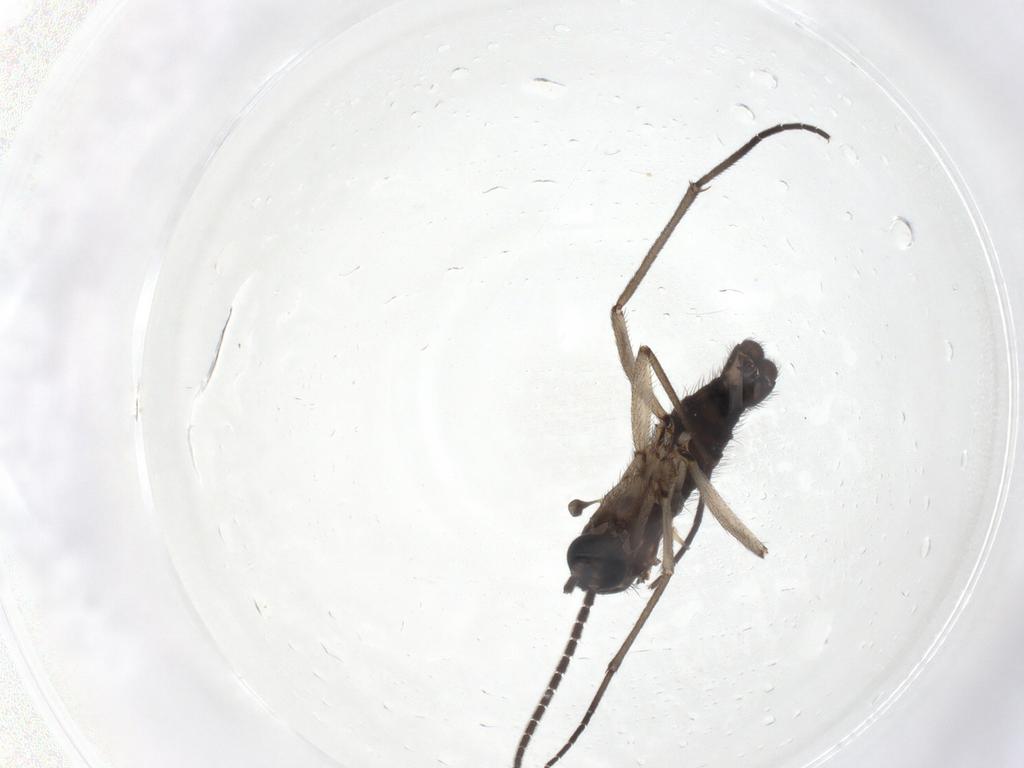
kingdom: Animalia
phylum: Arthropoda
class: Insecta
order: Diptera
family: Sciaridae
